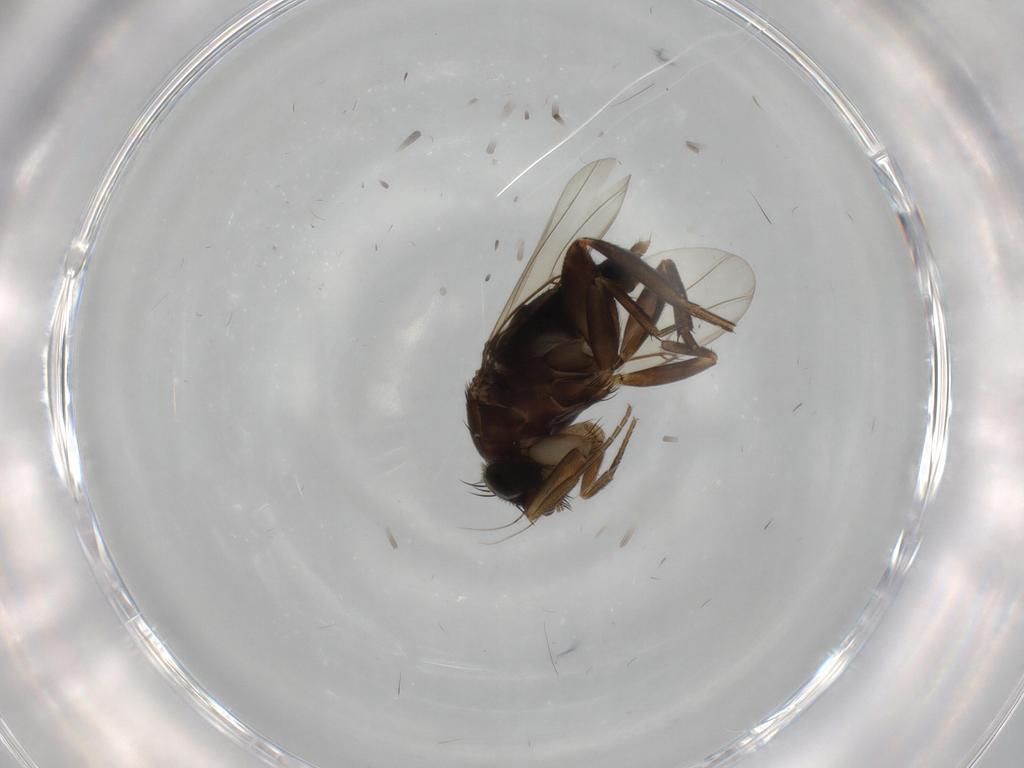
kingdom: Animalia
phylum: Arthropoda
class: Insecta
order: Diptera
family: Phoridae
